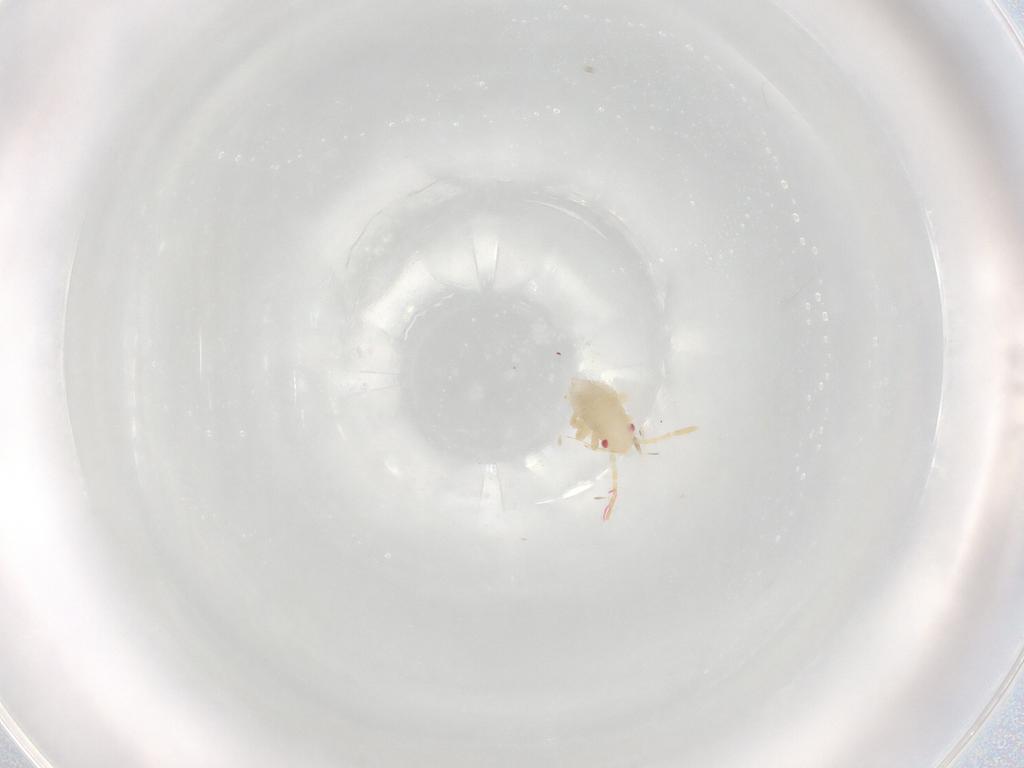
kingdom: Animalia
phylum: Arthropoda
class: Insecta
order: Hemiptera
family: Miridae
